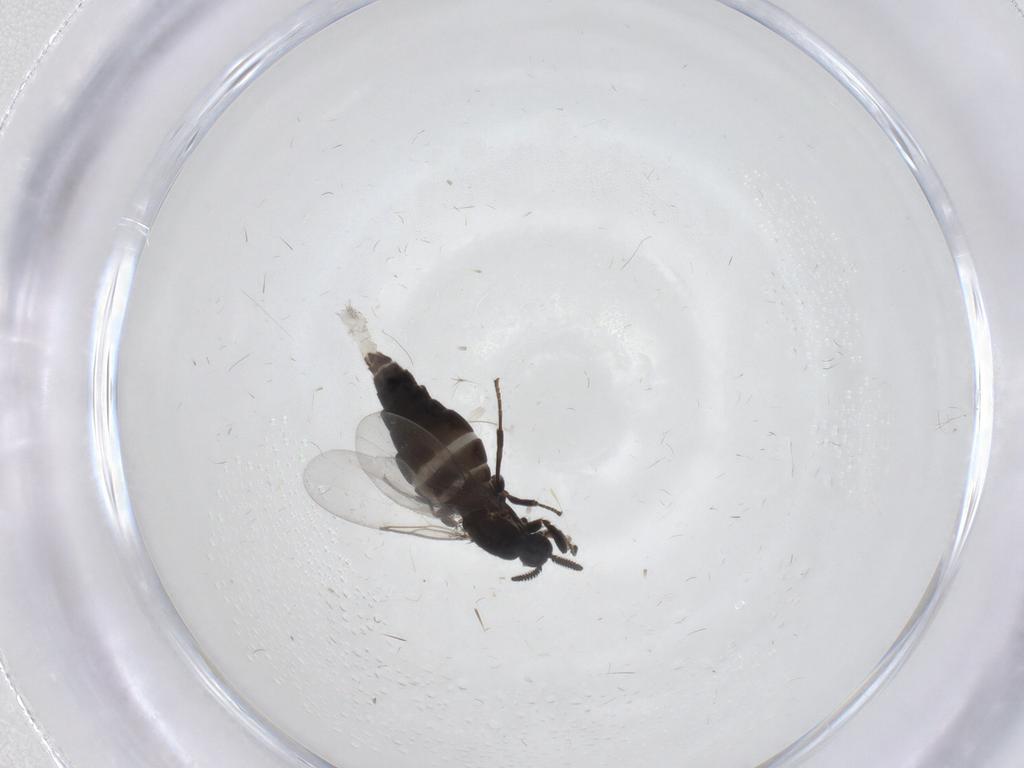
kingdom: Animalia
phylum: Arthropoda
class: Insecta
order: Diptera
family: Scatopsidae
